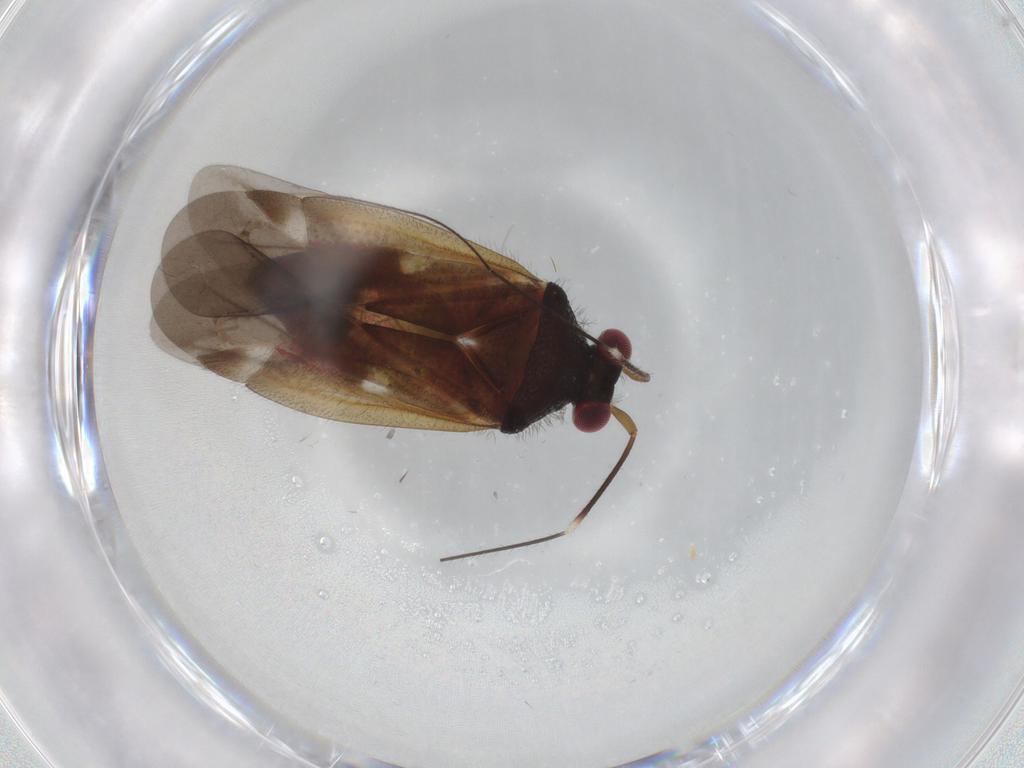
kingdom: Animalia
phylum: Arthropoda
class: Insecta
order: Hemiptera
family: Miridae
